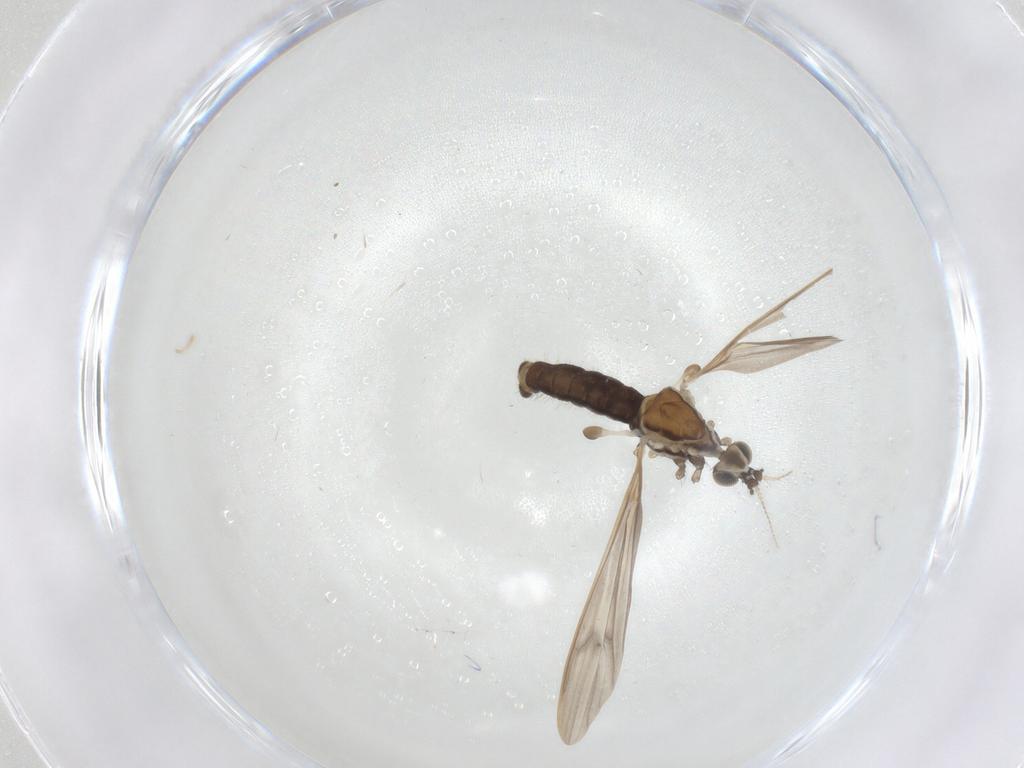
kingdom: Animalia
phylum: Arthropoda
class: Insecta
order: Diptera
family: Limoniidae
